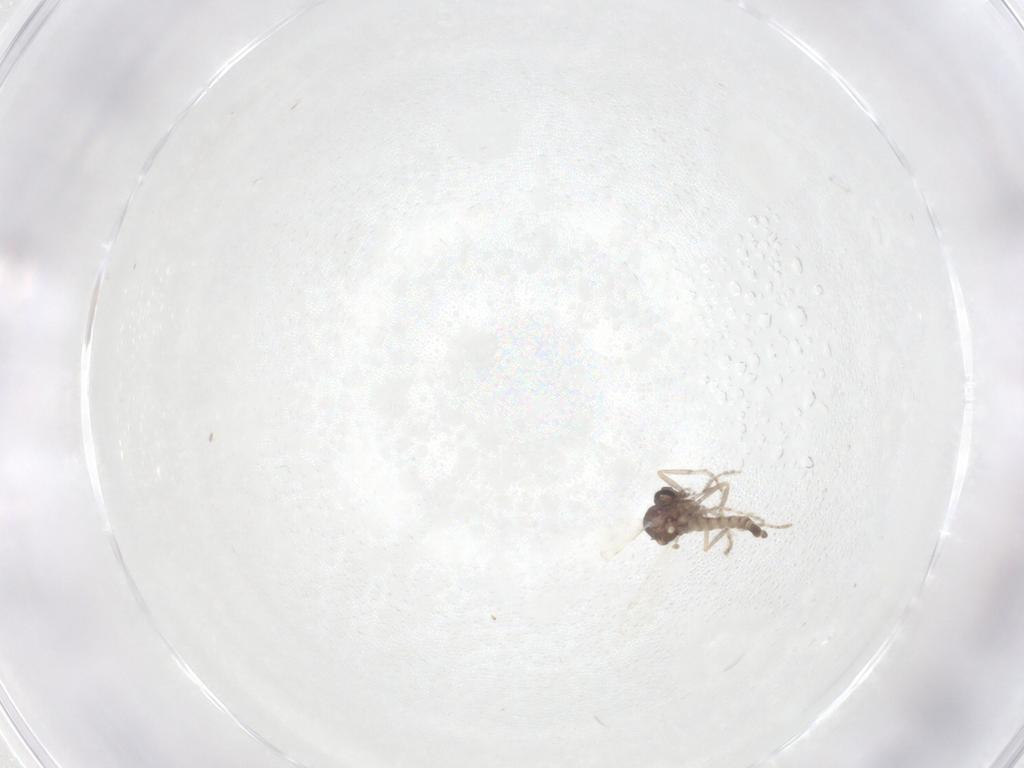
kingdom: Animalia
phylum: Arthropoda
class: Insecta
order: Diptera
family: Ceratopogonidae
